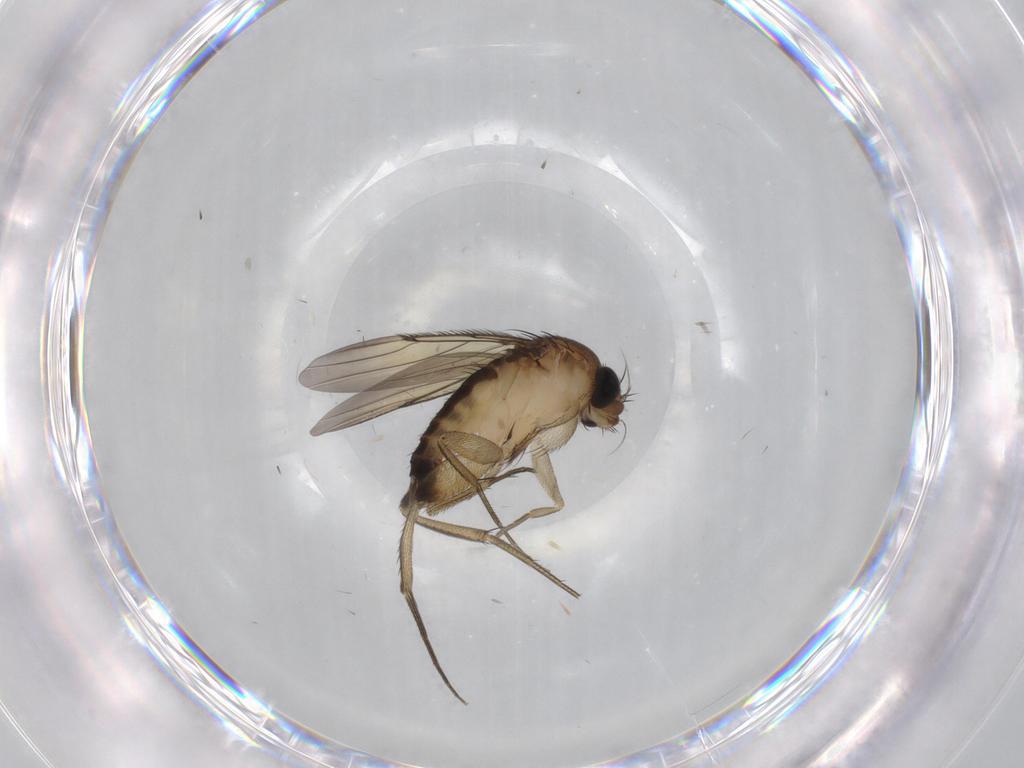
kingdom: Animalia
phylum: Arthropoda
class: Insecta
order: Diptera
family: Phoridae
